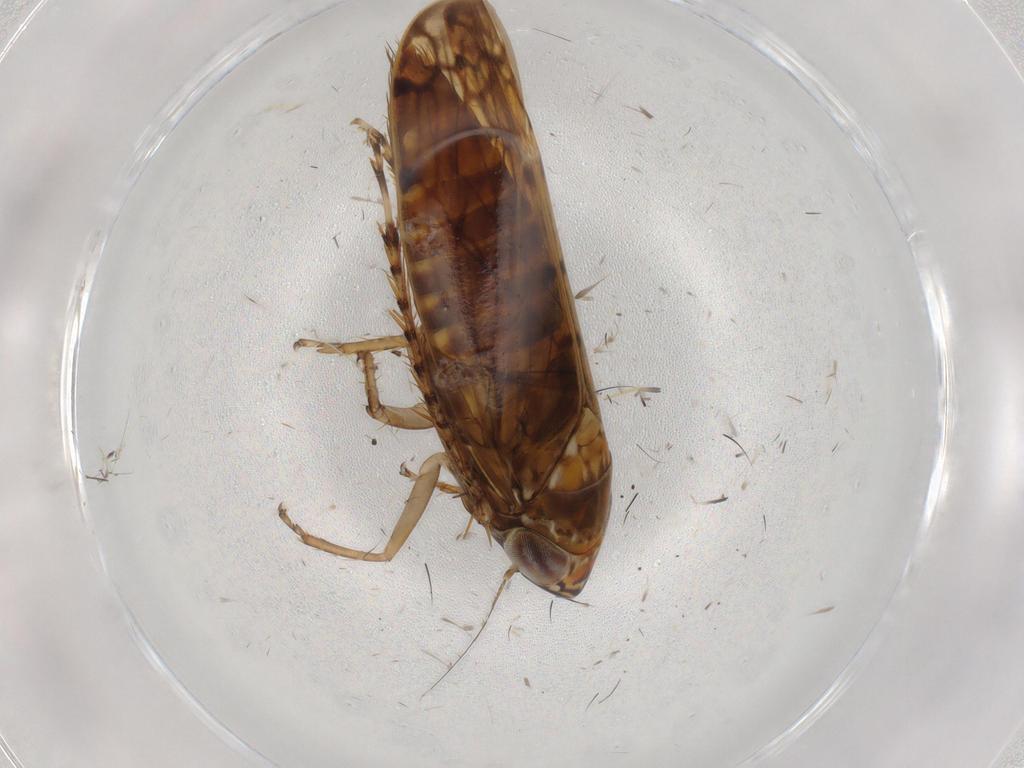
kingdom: Animalia
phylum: Arthropoda
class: Insecta
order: Hemiptera
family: Cicadellidae
